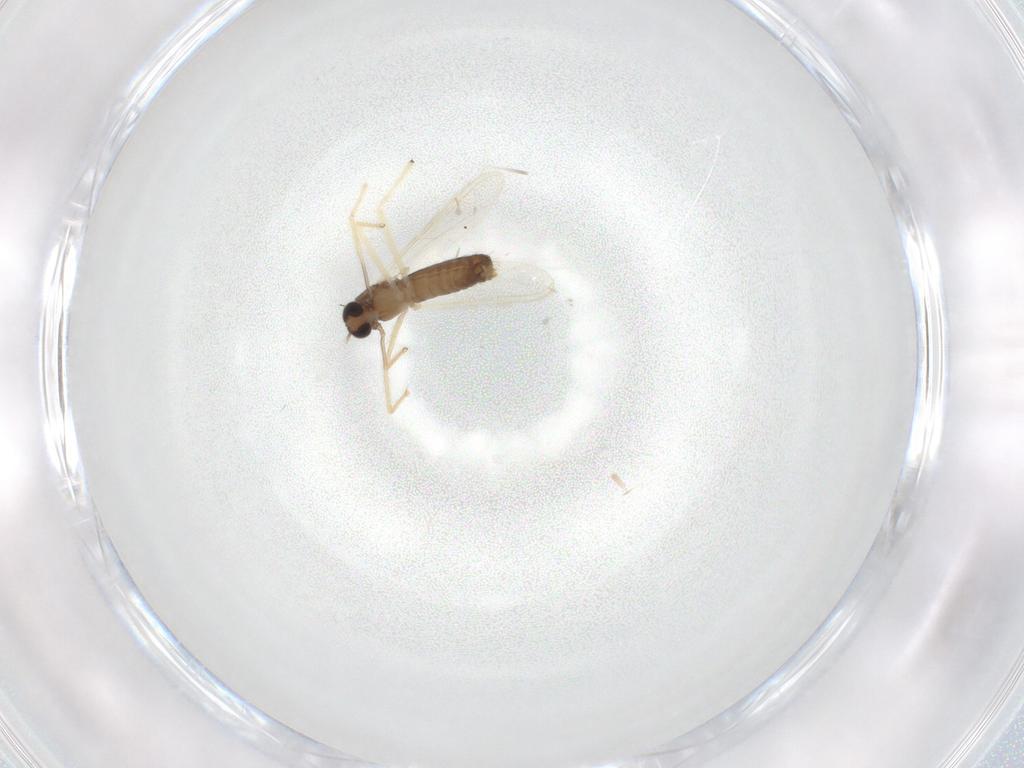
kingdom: Animalia
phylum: Arthropoda
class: Insecta
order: Diptera
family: Chironomidae
